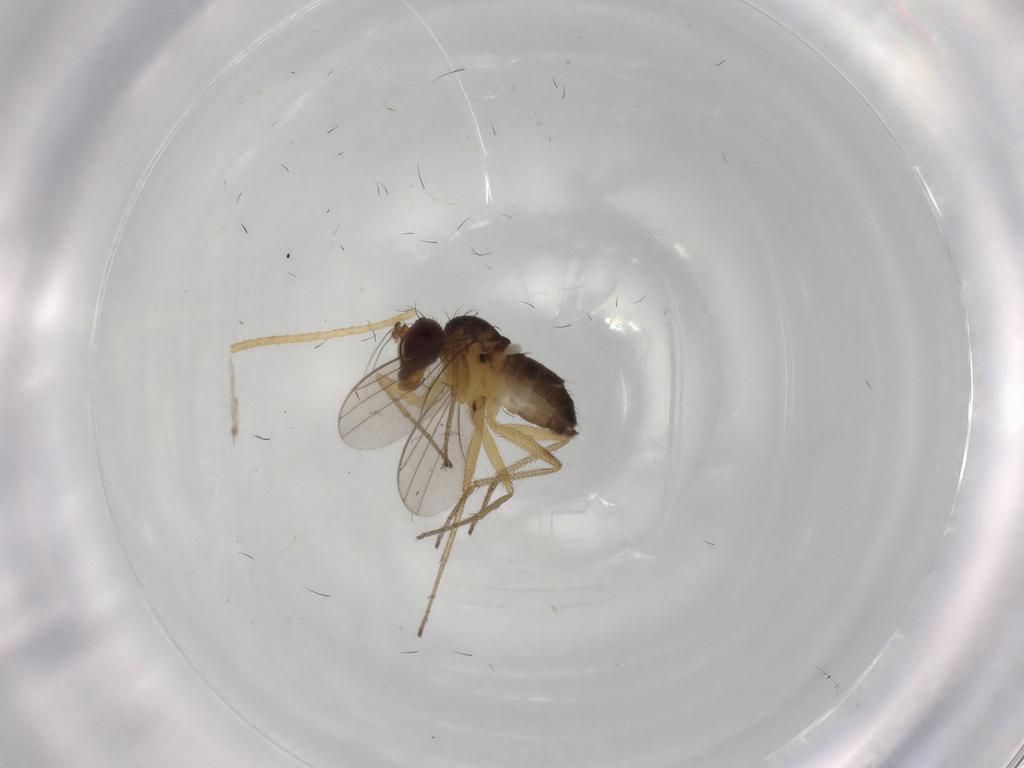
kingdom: Animalia
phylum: Arthropoda
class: Insecta
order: Diptera
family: Dolichopodidae
